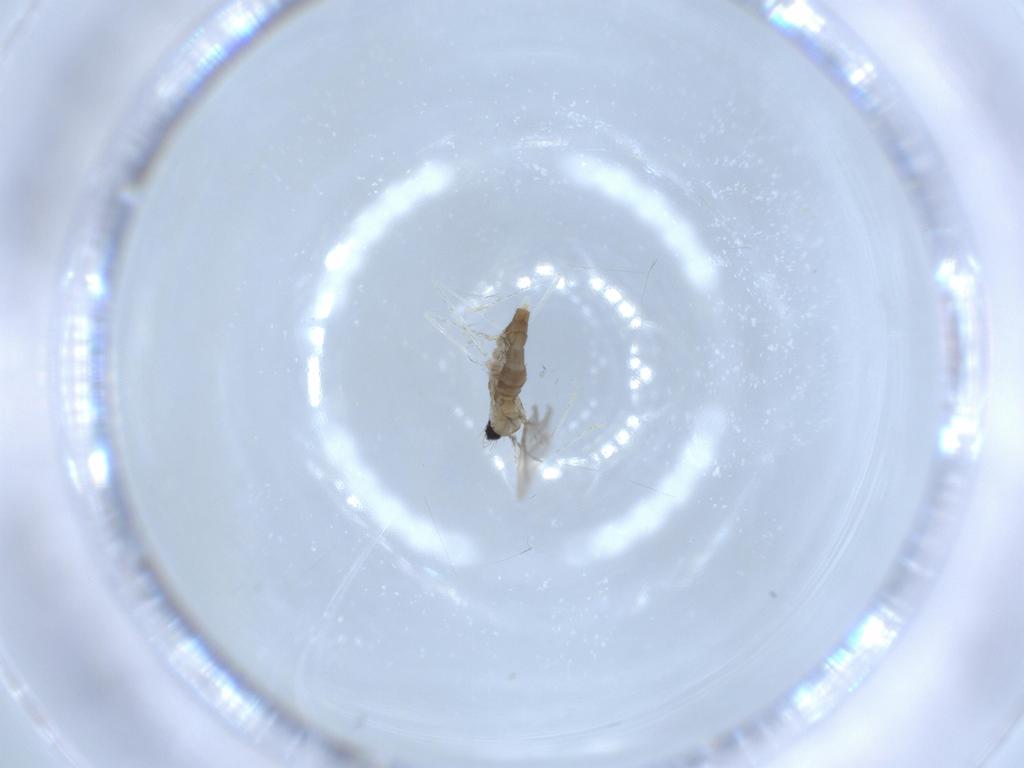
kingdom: Animalia
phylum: Arthropoda
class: Insecta
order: Diptera
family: Cecidomyiidae
